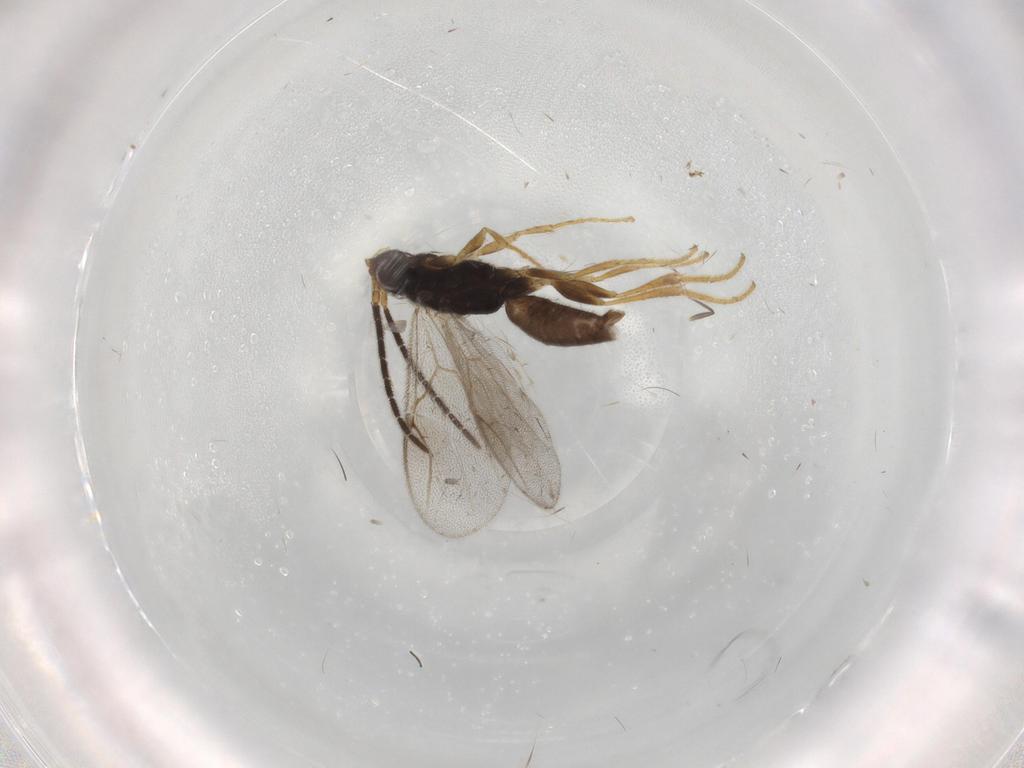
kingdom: Animalia
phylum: Arthropoda
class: Insecta
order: Hymenoptera
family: Dryinidae
